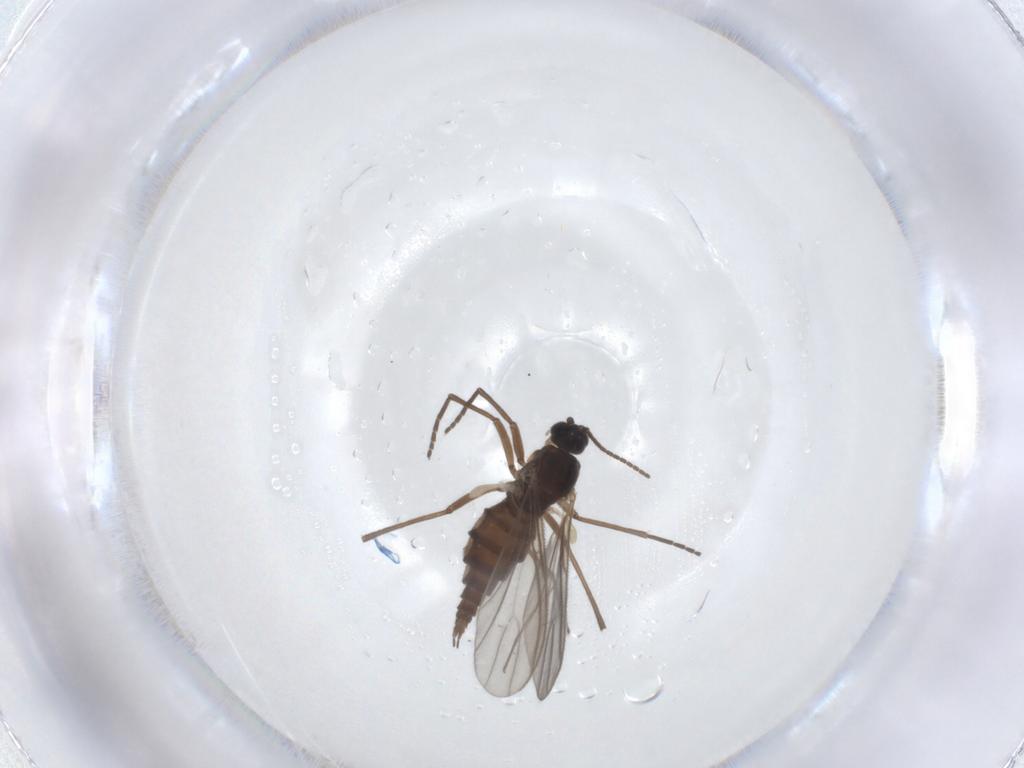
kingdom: Animalia
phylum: Arthropoda
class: Insecta
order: Diptera
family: Sciaridae
